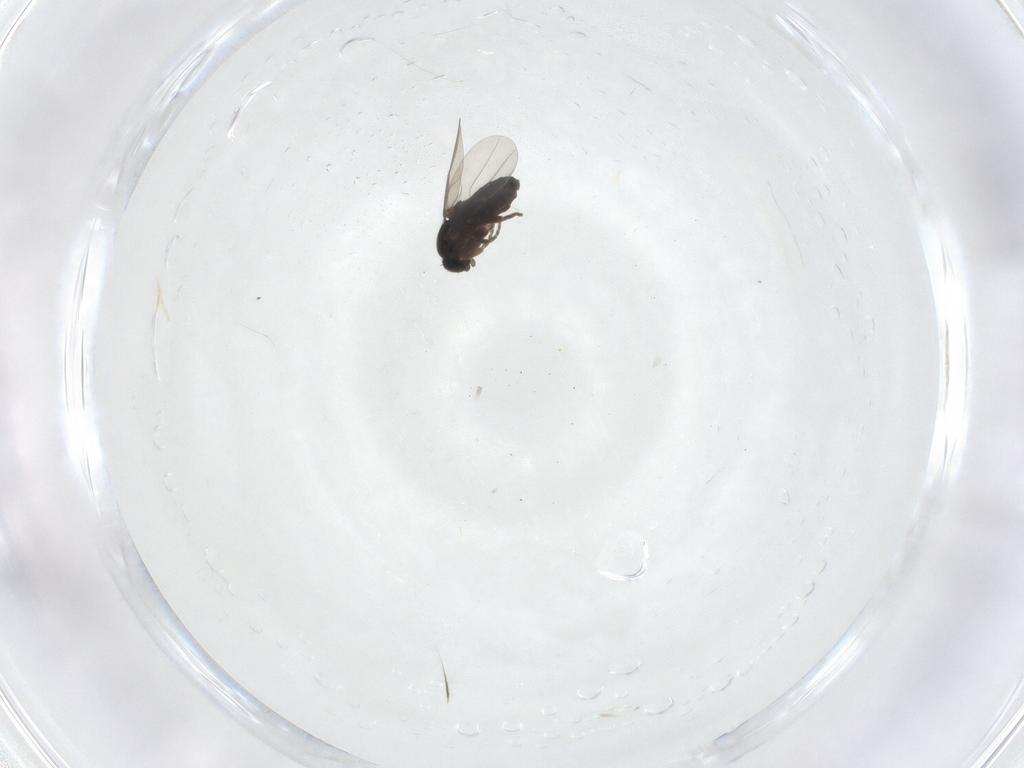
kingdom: Animalia
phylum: Arthropoda
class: Insecta
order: Diptera
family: Phoridae
